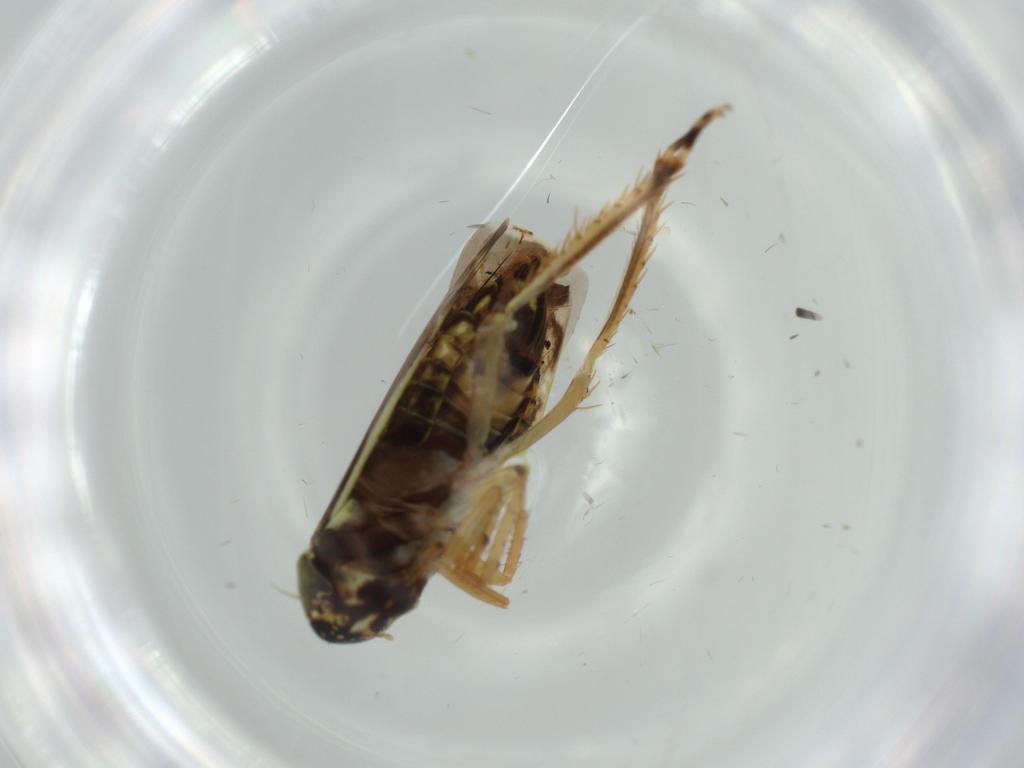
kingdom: Animalia
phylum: Arthropoda
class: Insecta
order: Hemiptera
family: Cicadellidae
